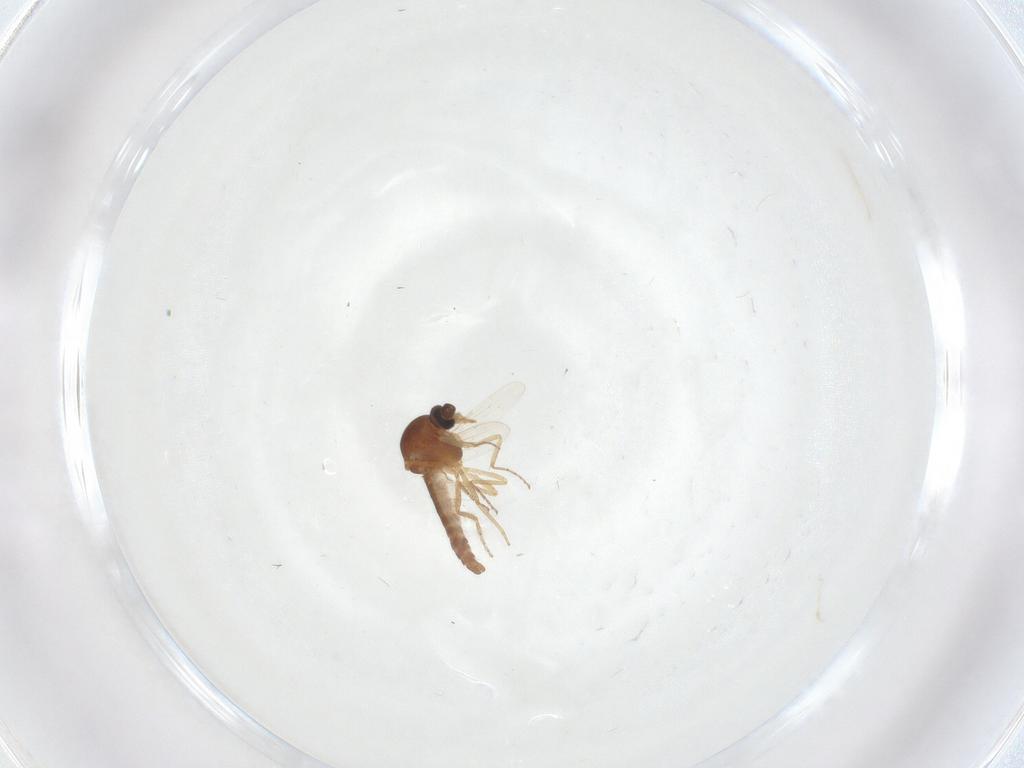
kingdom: Animalia
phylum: Arthropoda
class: Insecta
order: Diptera
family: Ceratopogonidae
